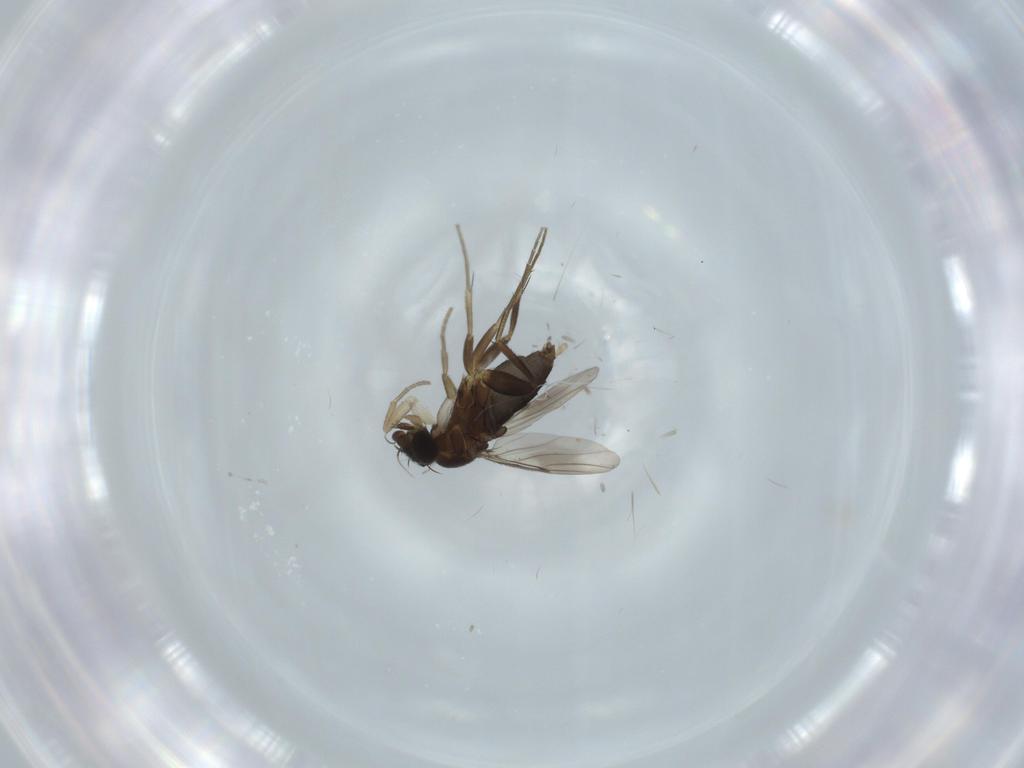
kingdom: Animalia
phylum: Arthropoda
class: Insecta
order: Diptera
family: Phoridae
